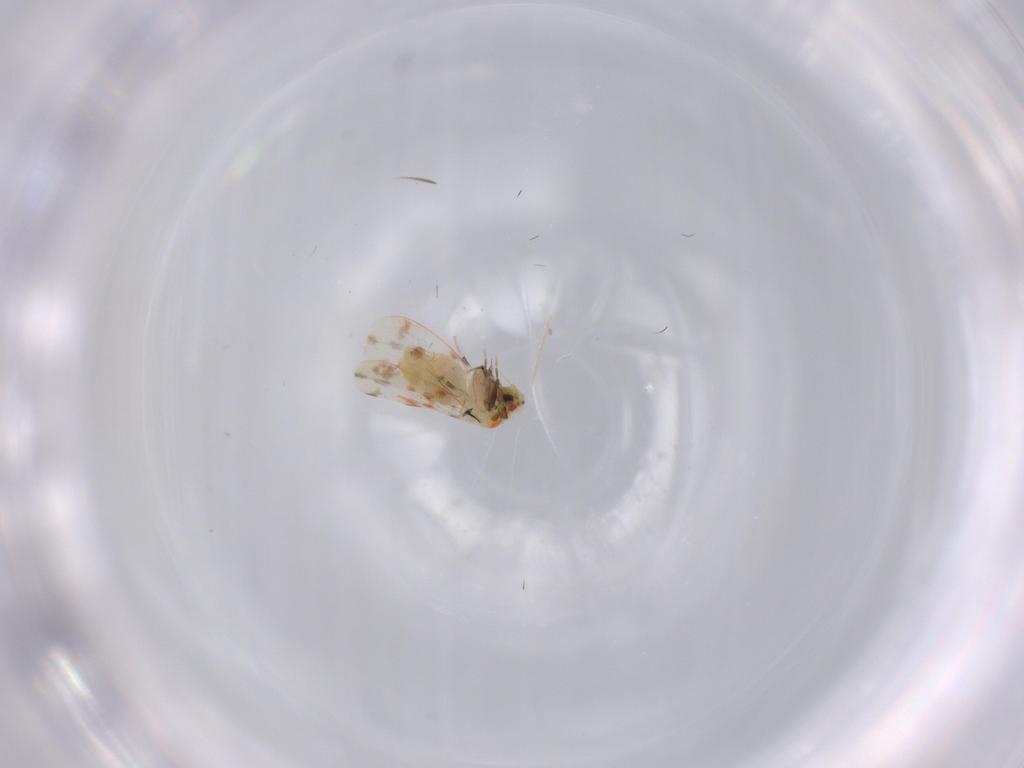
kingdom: Animalia
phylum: Arthropoda
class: Insecta
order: Hemiptera
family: Aleyrodidae
